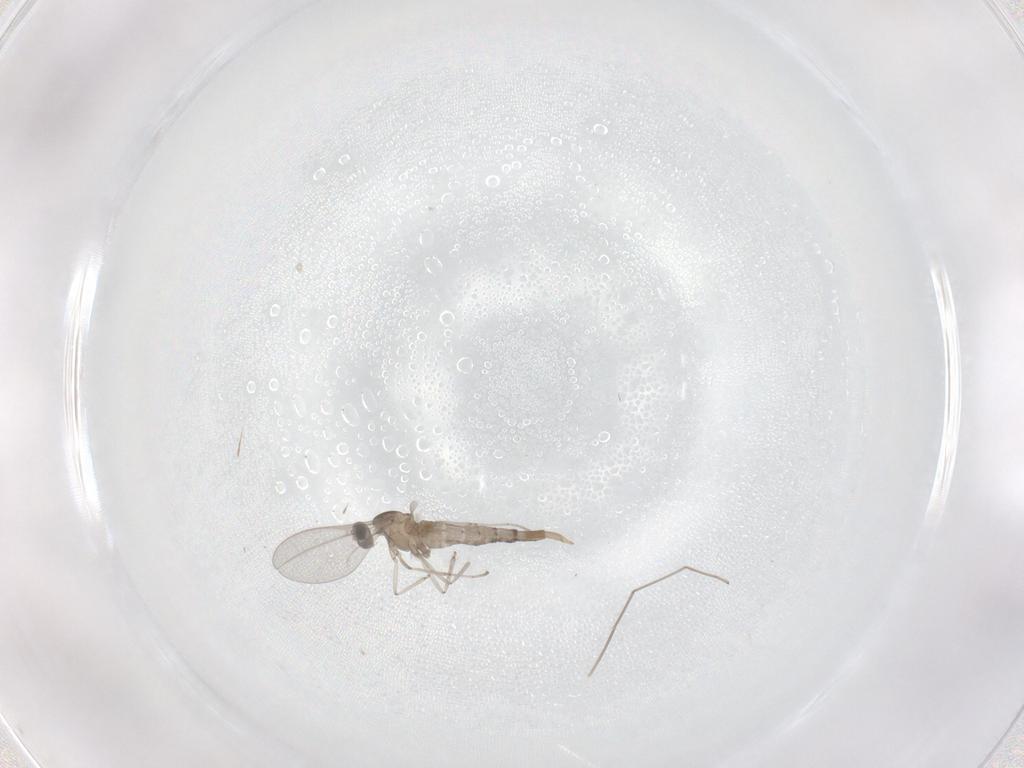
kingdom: Animalia
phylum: Arthropoda
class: Insecta
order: Diptera
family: Cecidomyiidae
